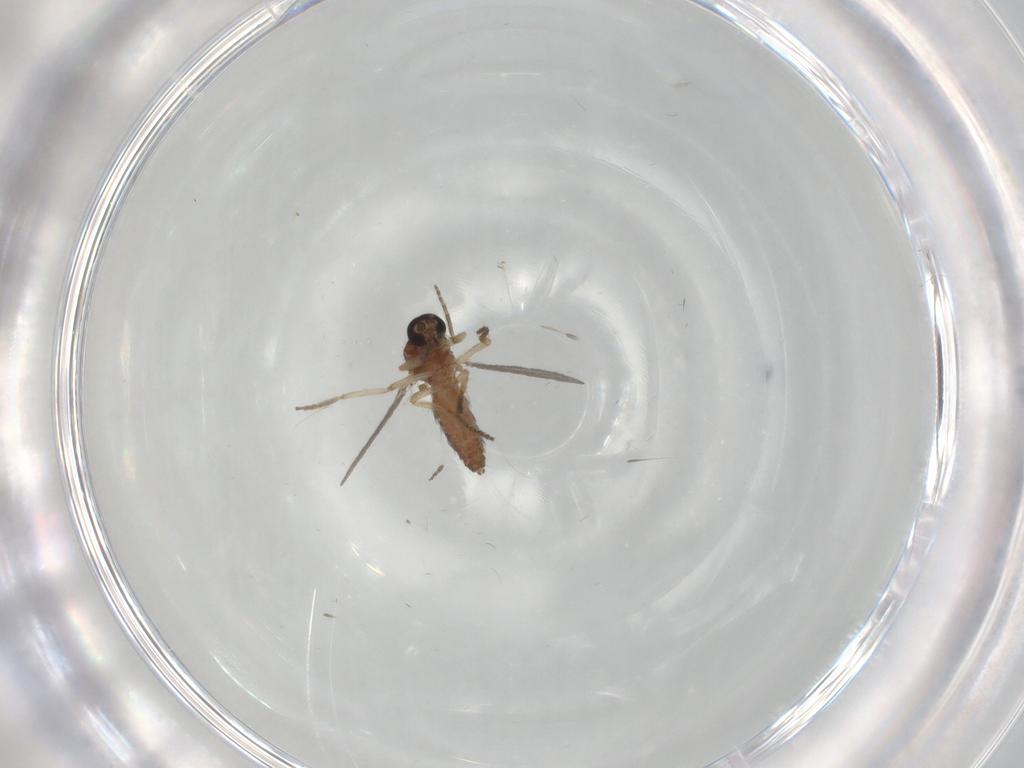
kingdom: Animalia
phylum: Arthropoda
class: Insecta
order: Diptera
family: Ceratopogonidae
